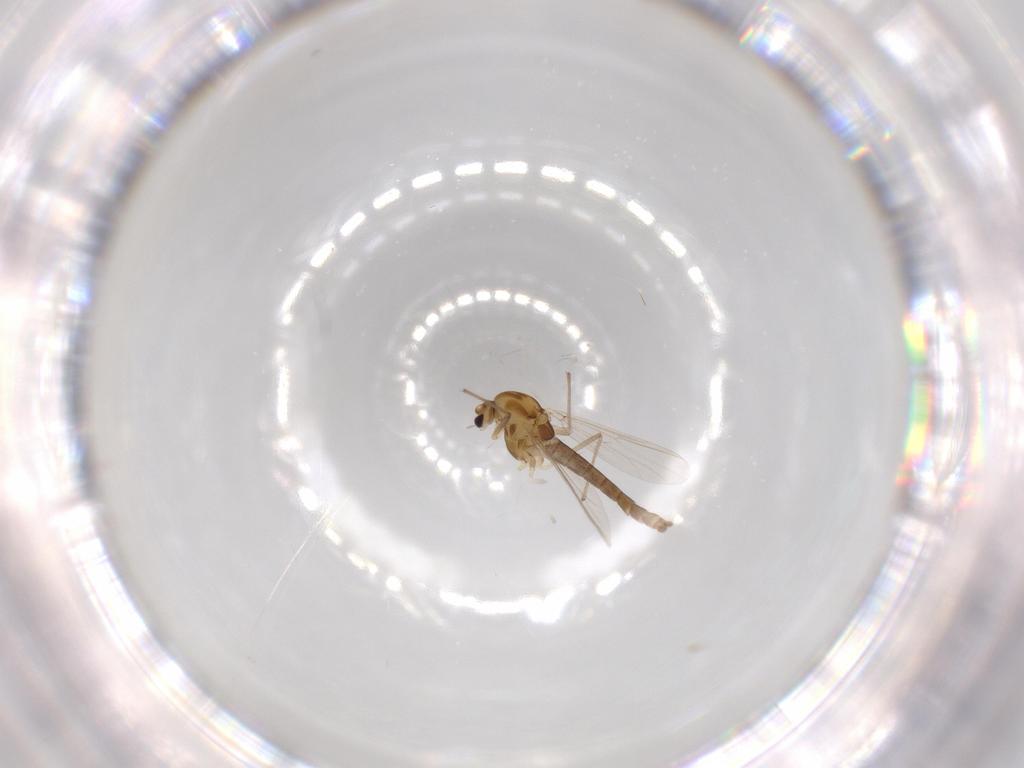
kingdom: Animalia
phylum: Arthropoda
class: Insecta
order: Diptera
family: Chironomidae
